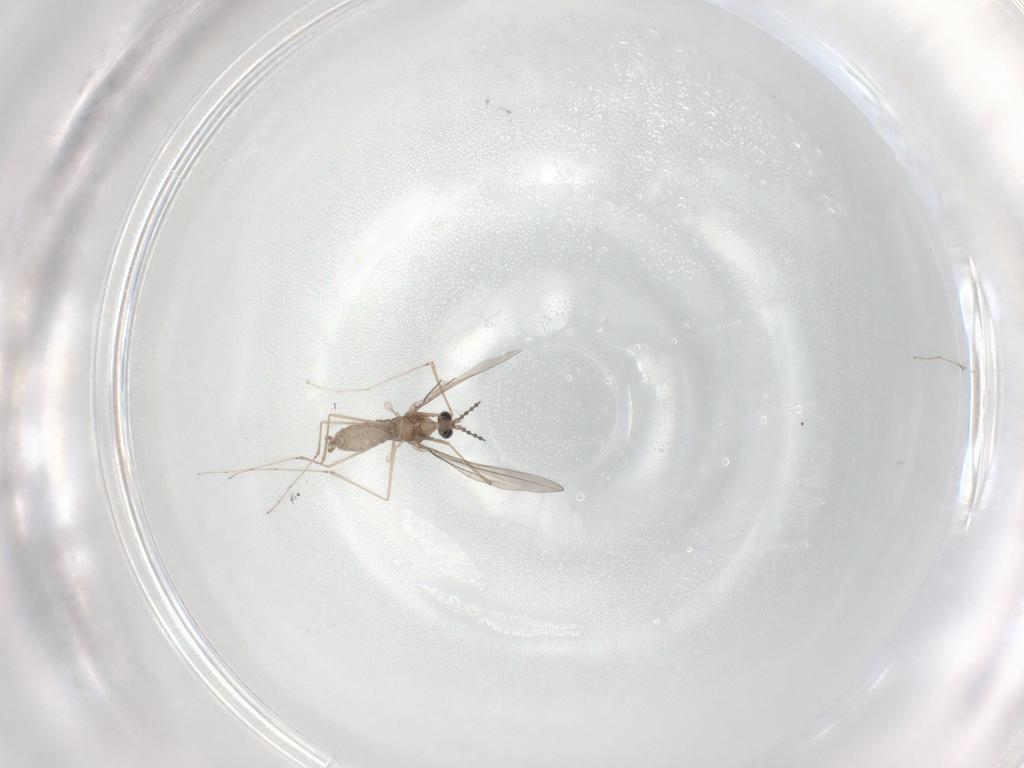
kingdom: Animalia
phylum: Arthropoda
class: Insecta
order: Diptera
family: Cecidomyiidae
